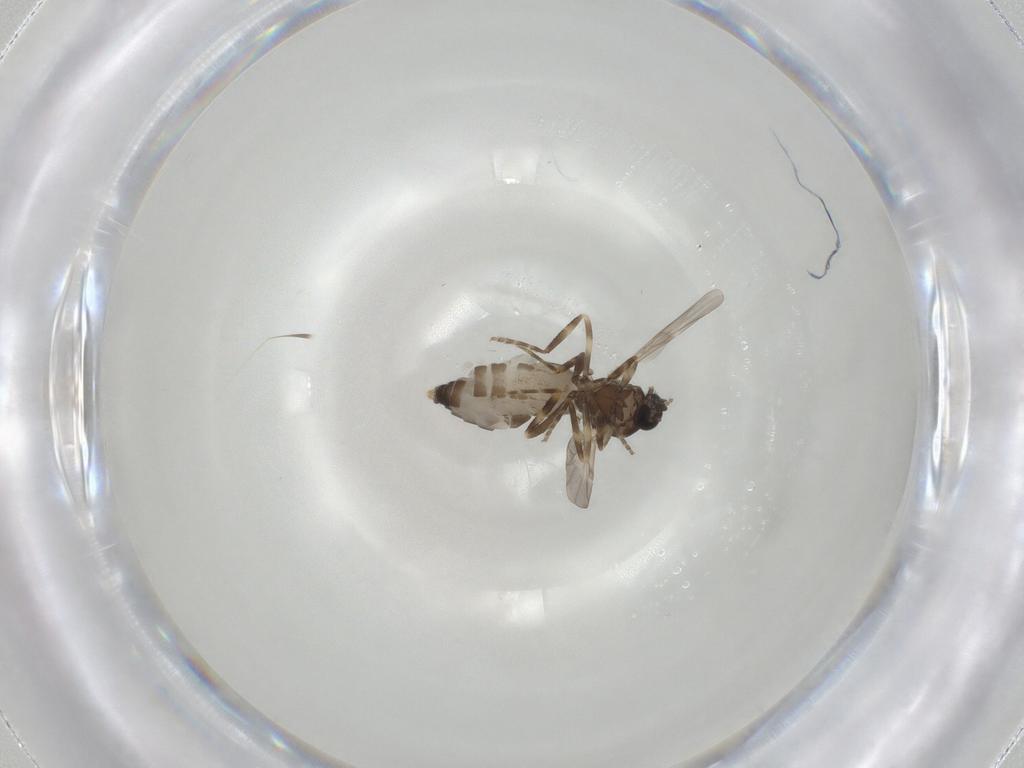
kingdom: Animalia
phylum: Arthropoda
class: Insecta
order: Diptera
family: Ceratopogonidae
